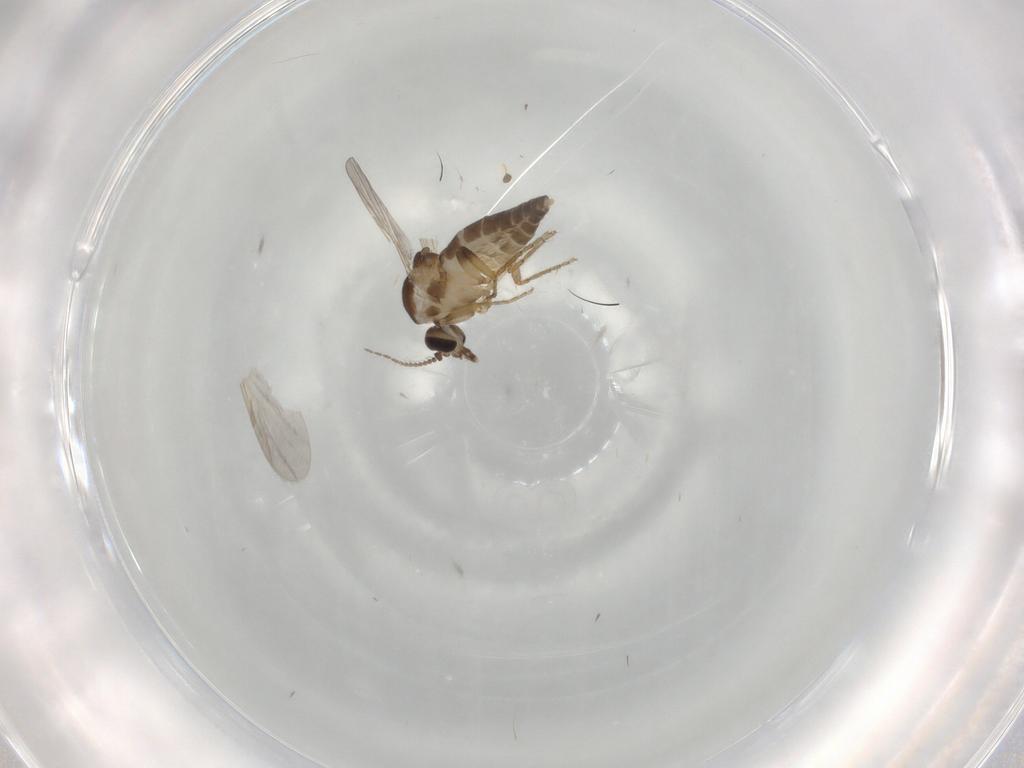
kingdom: Animalia
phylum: Arthropoda
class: Insecta
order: Diptera
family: Ceratopogonidae
